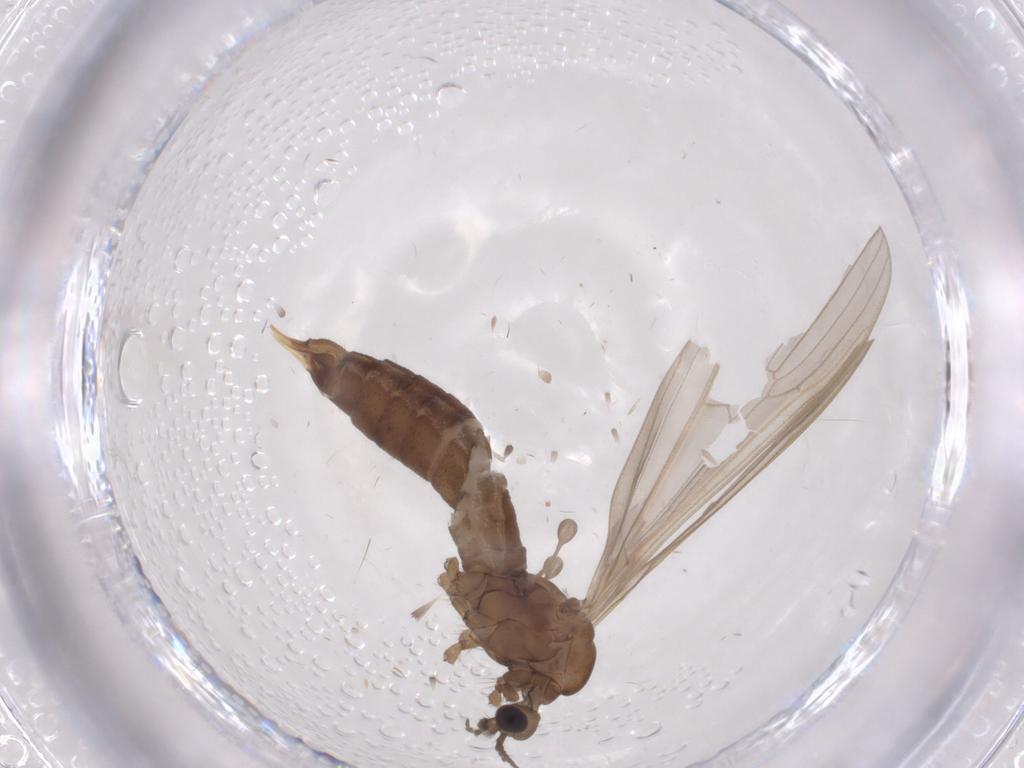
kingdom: Animalia
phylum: Arthropoda
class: Insecta
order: Diptera
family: Limoniidae
